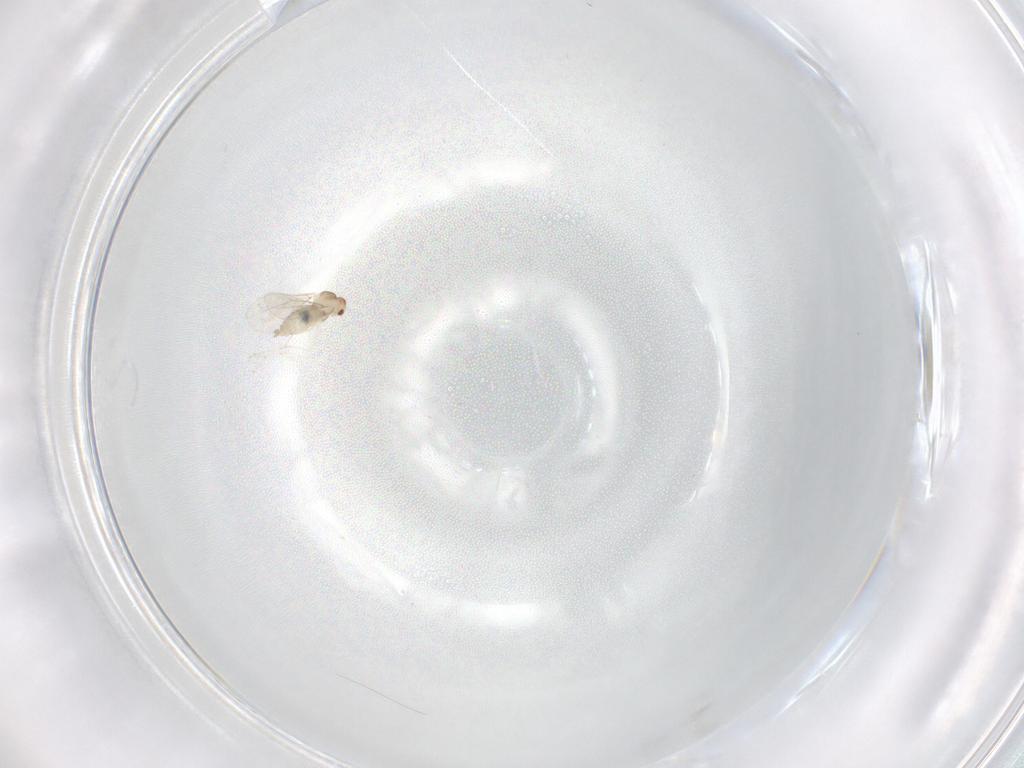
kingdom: Animalia
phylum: Arthropoda
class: Insecta
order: Diptera
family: Cecidomyiidae
